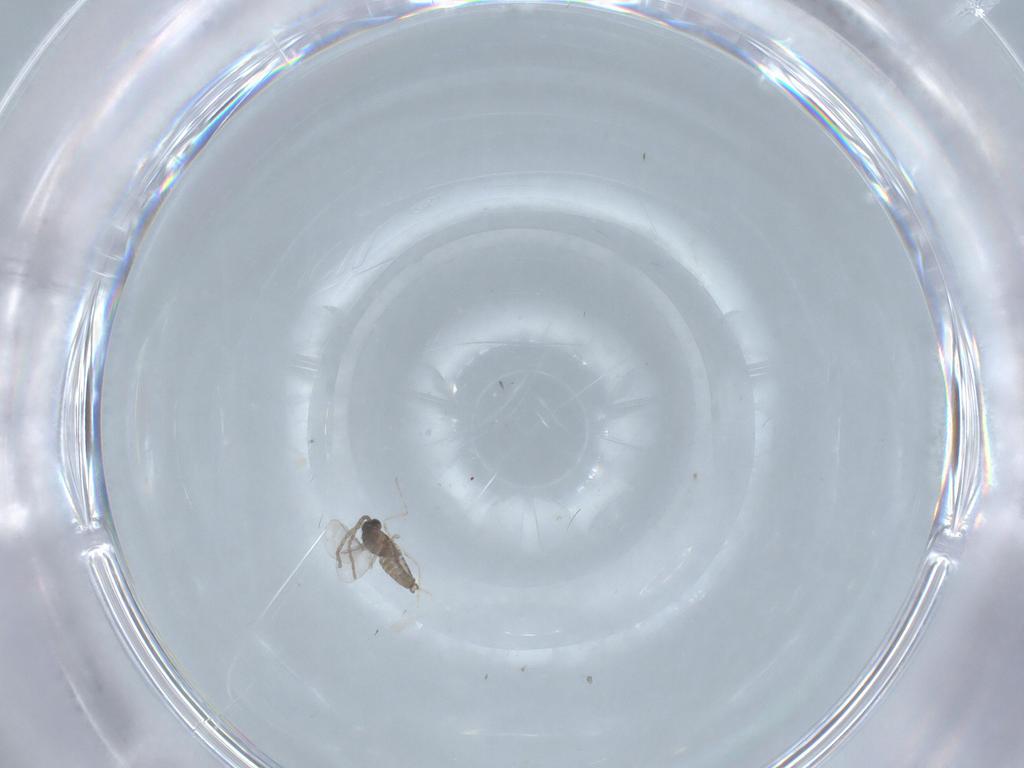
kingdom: Animalia
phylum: Arthropoda
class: Insecta
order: Diptera
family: Cecidomyiidae
